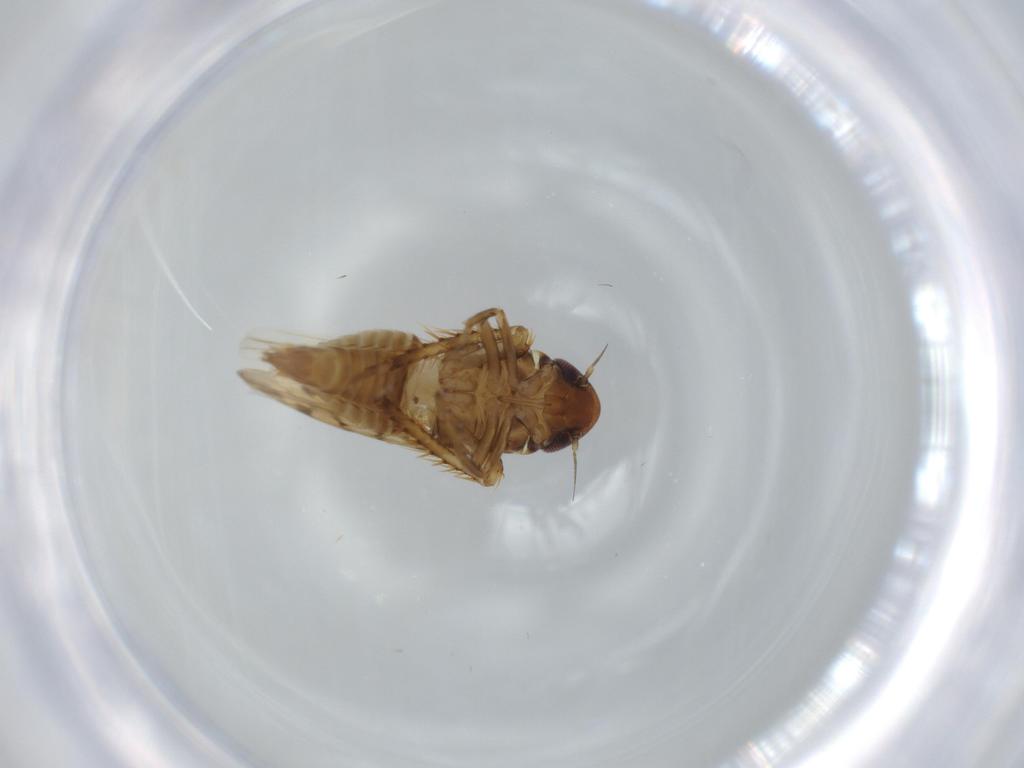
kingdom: Animalia
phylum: Arthropoda
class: Insecta
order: Hemiptera
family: Cicadellidae
